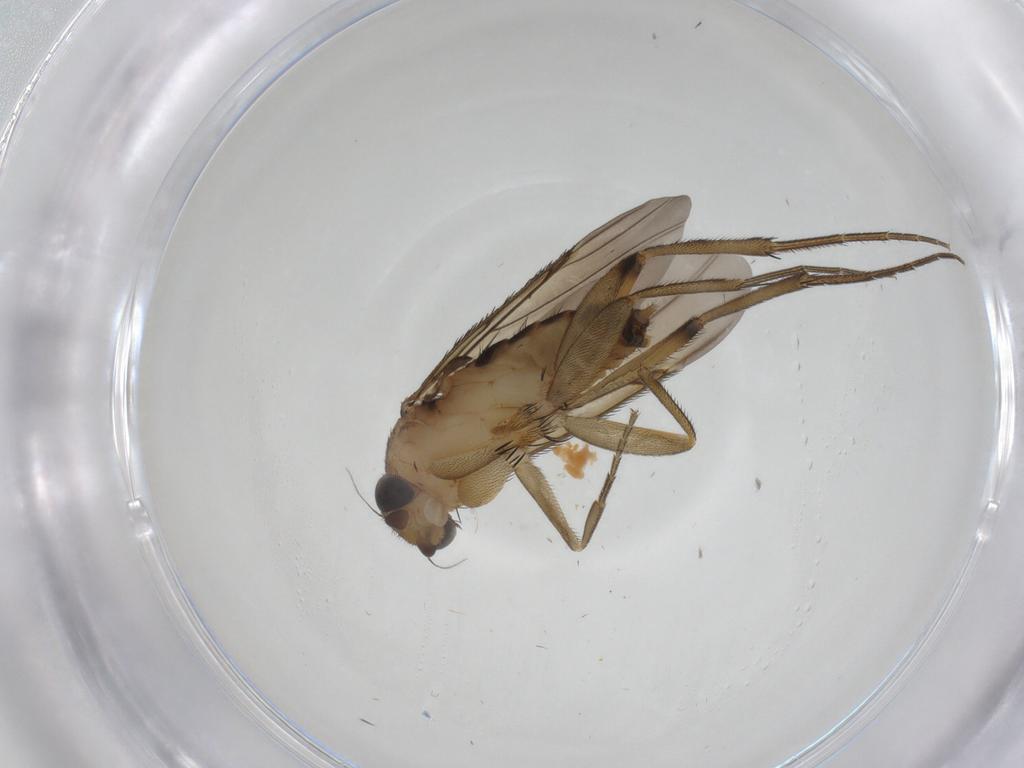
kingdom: Animalia
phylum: Arthropoda
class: Insecta
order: Diptera
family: Phoridae
